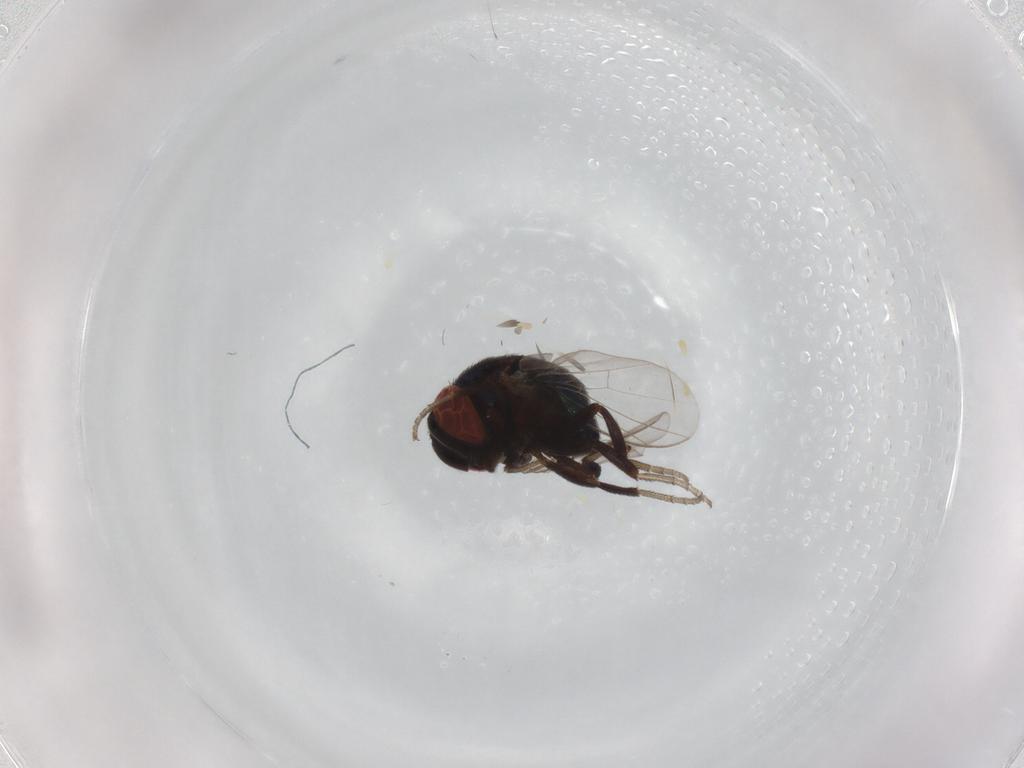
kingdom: Animalia
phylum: Arthropoda
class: Insecta
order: Diptera
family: Cryptochetidae
